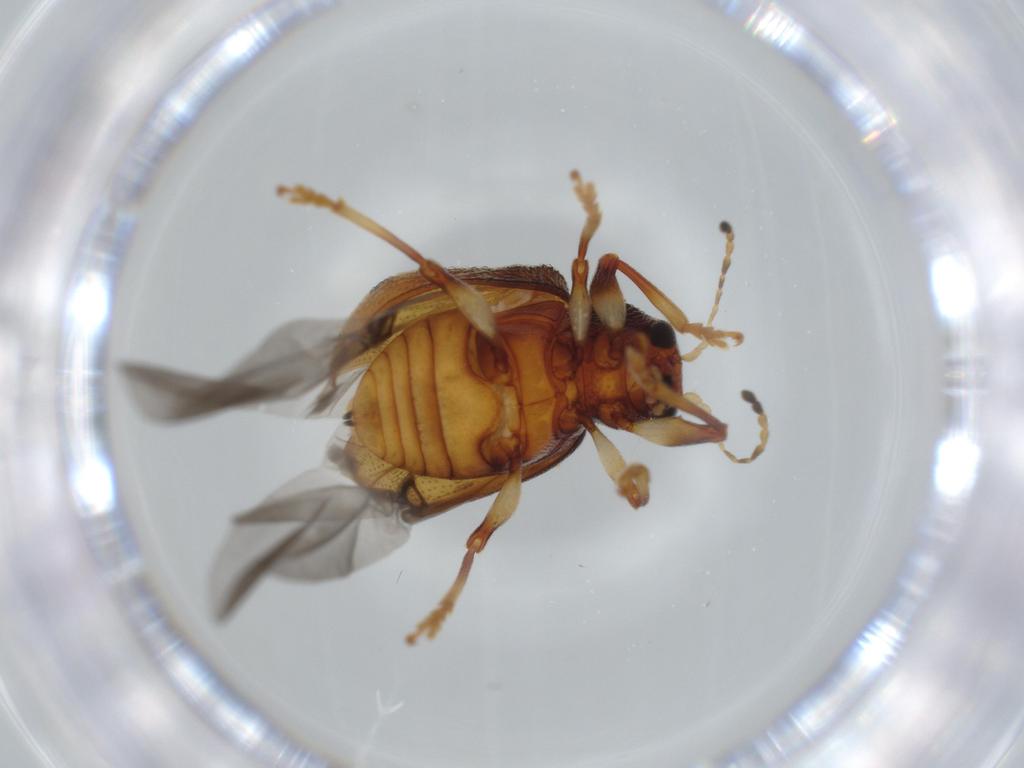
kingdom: Animalia
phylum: Arthropoda
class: Insecta
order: Coleoptera
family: Chrysomelidae
